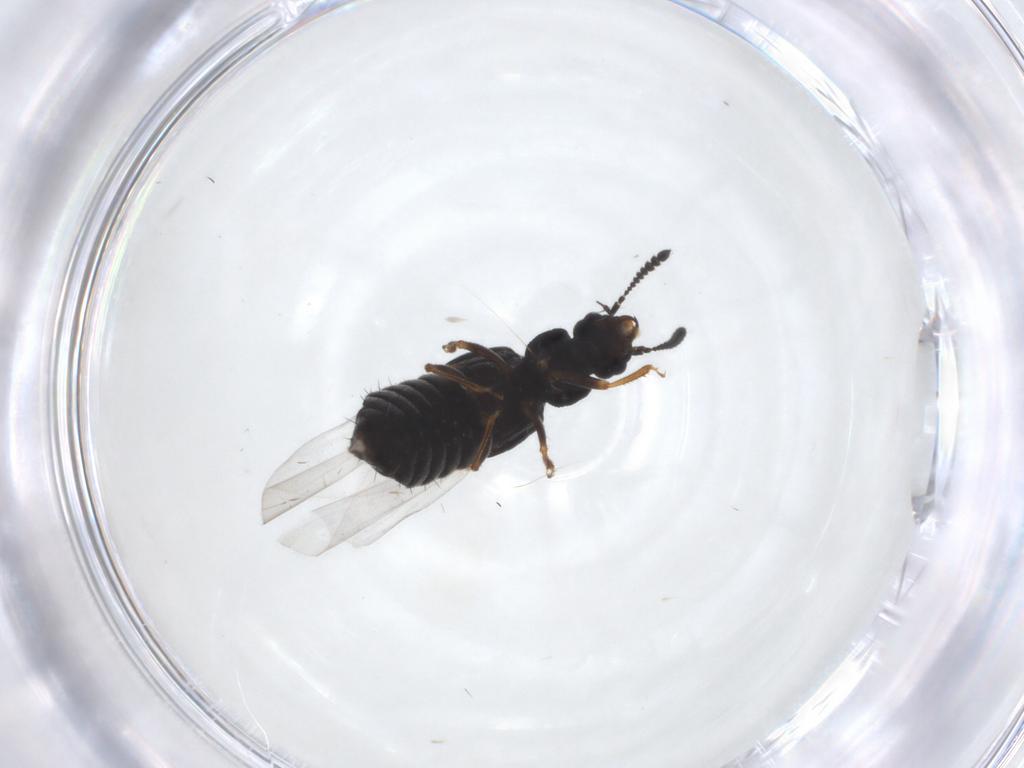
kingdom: Animalia
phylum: Arthropoda
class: Insecta
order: Coleoptera
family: Staphylinidae
